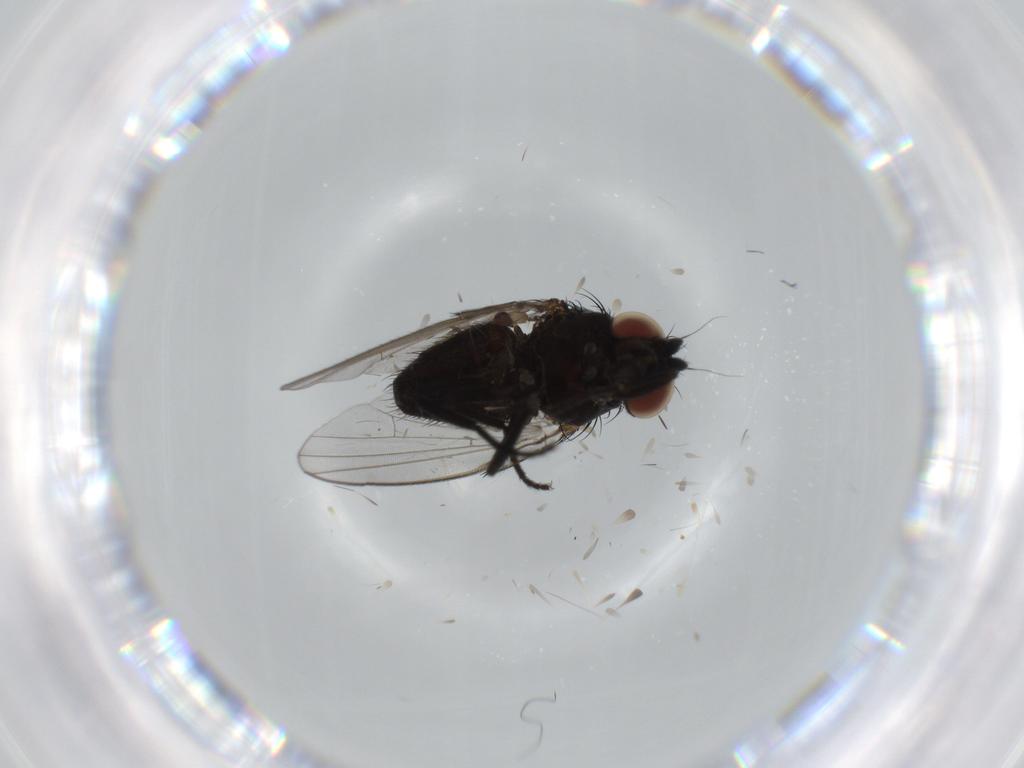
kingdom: Animalia
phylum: Arthropoda
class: Insecta
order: Diptera
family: Milichiidae
